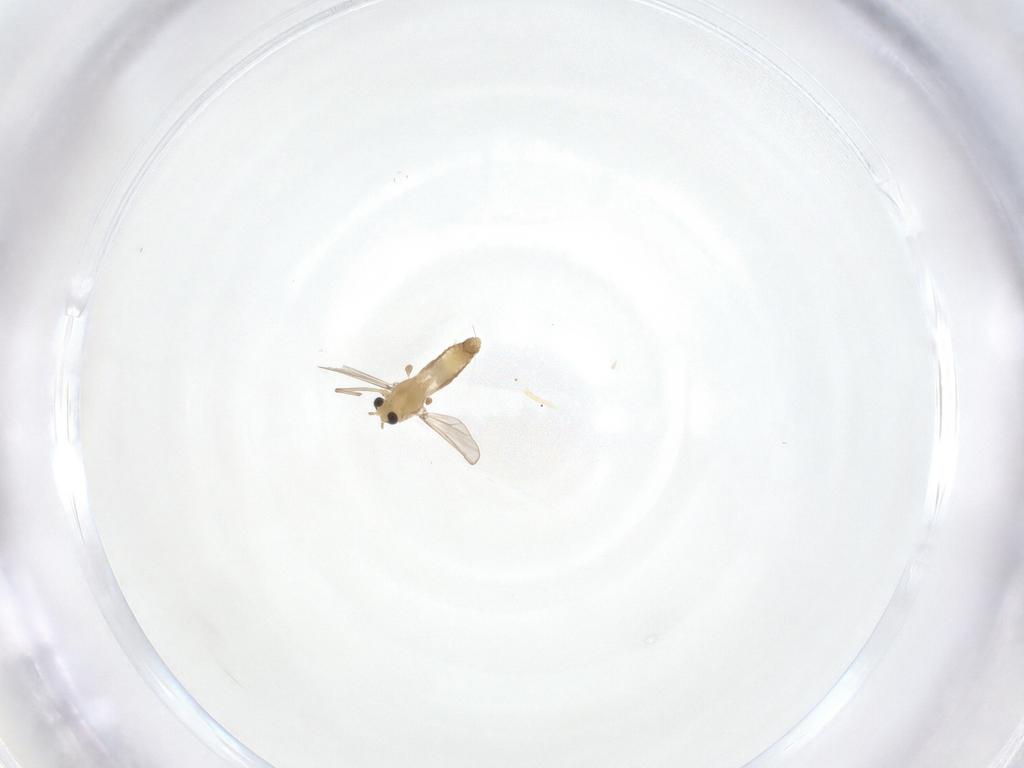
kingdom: Animalia
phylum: Arthropoda
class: Insecta
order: Diptera
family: Chironomidae
